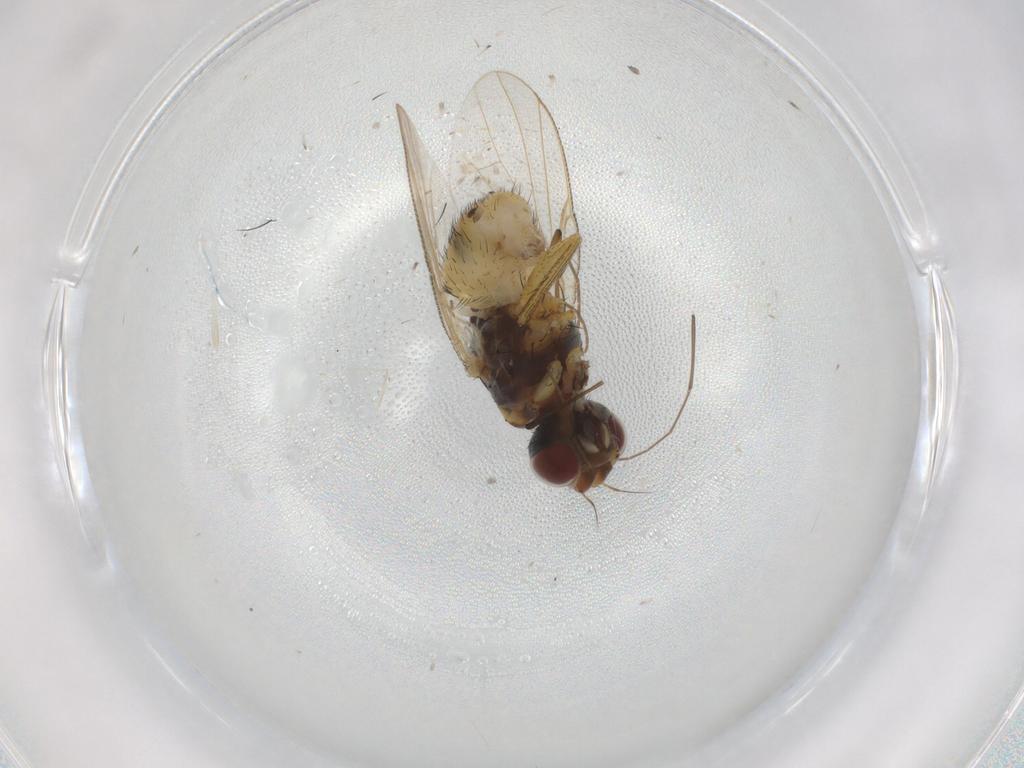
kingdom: Animalia
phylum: Arthropoda
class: Insecta
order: Diptera
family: Muscidae
